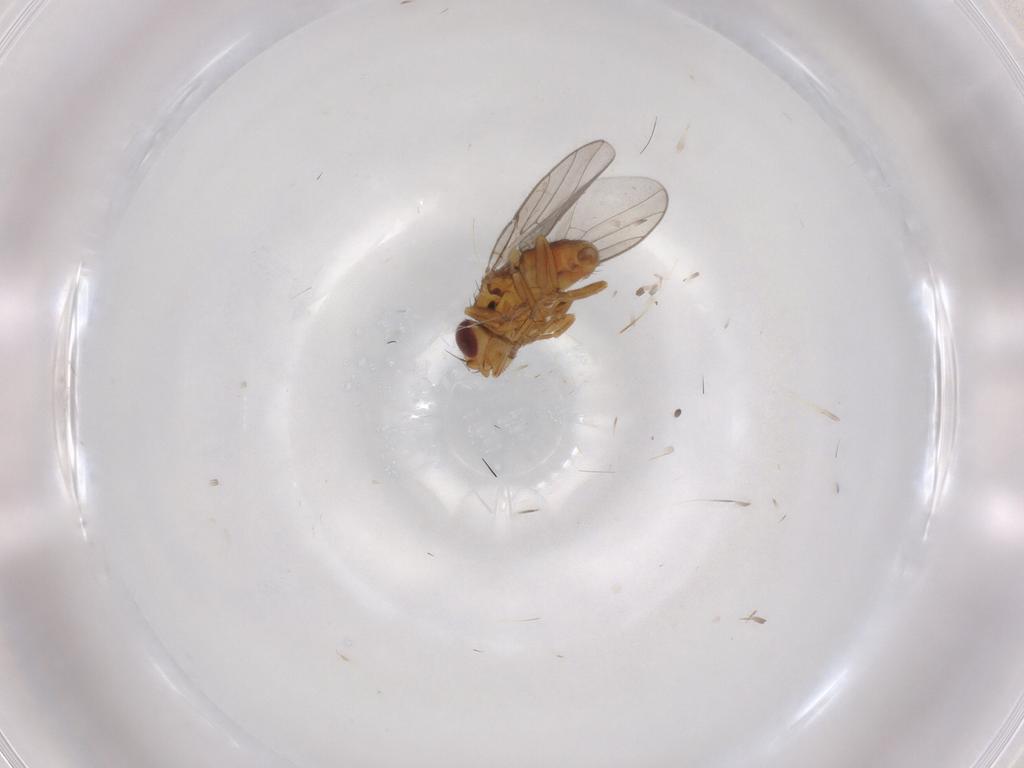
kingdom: Animalia
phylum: Arthropoda
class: Insecta
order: Diptera
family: Chloropidae
